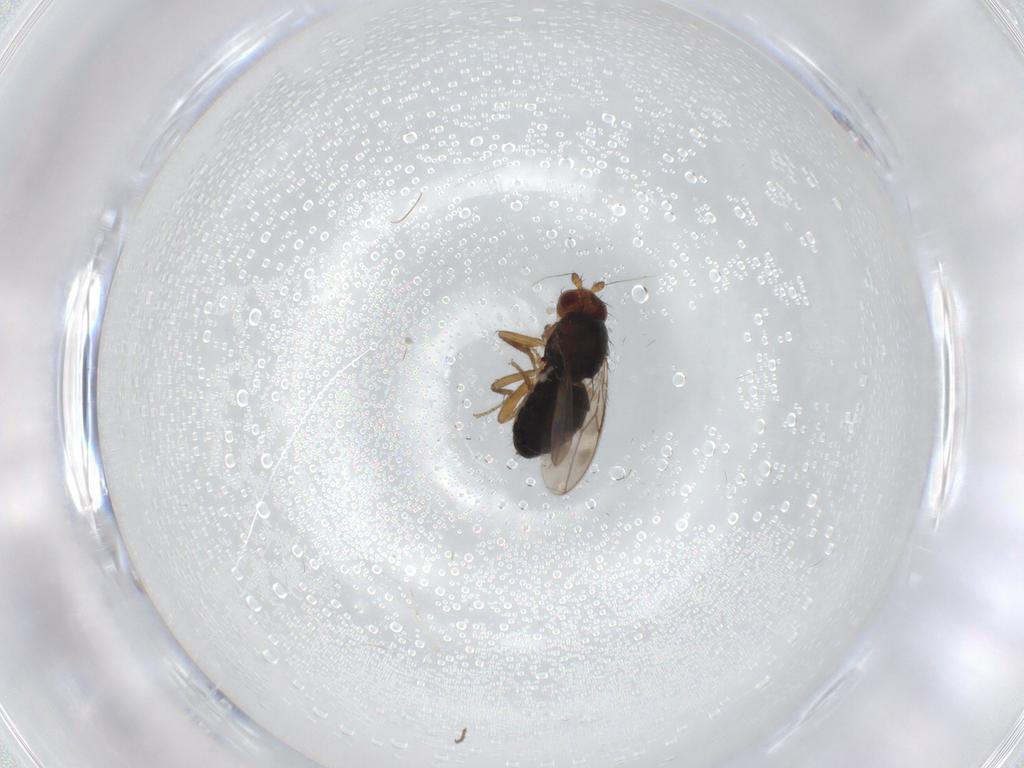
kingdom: Animalia
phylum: Arthropoda
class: Insecta
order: Diptera
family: Sphaeroceridae
